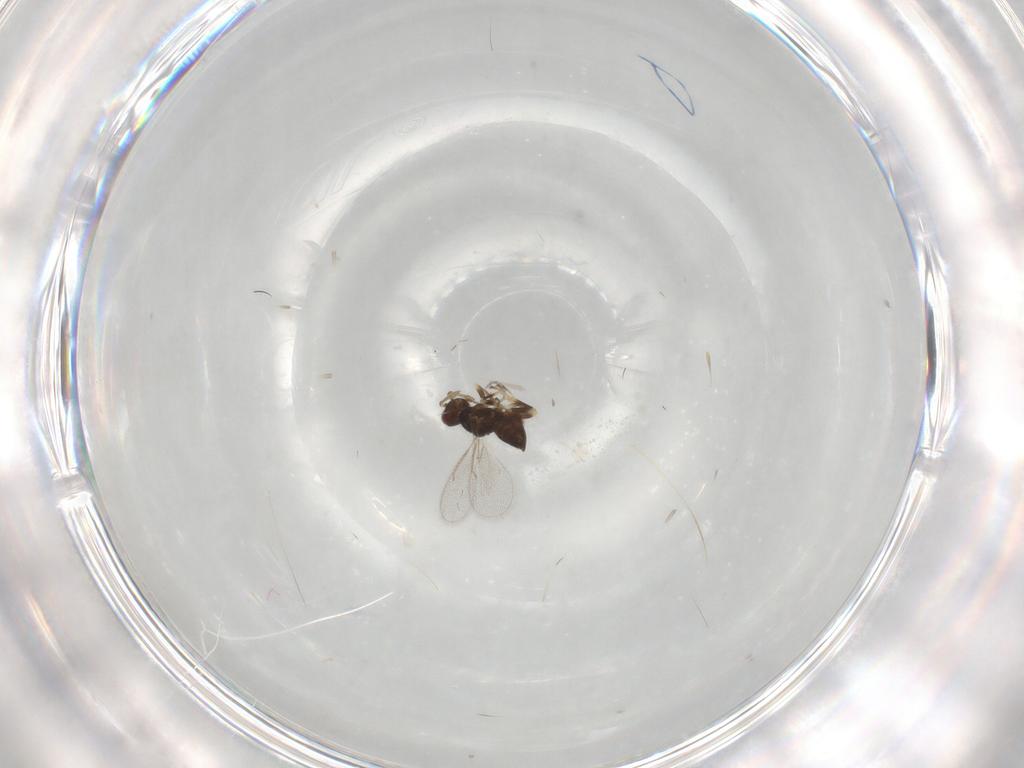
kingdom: Animalia
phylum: Arthropoda
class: Insecta
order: Hymenoptera
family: Eulophidae
